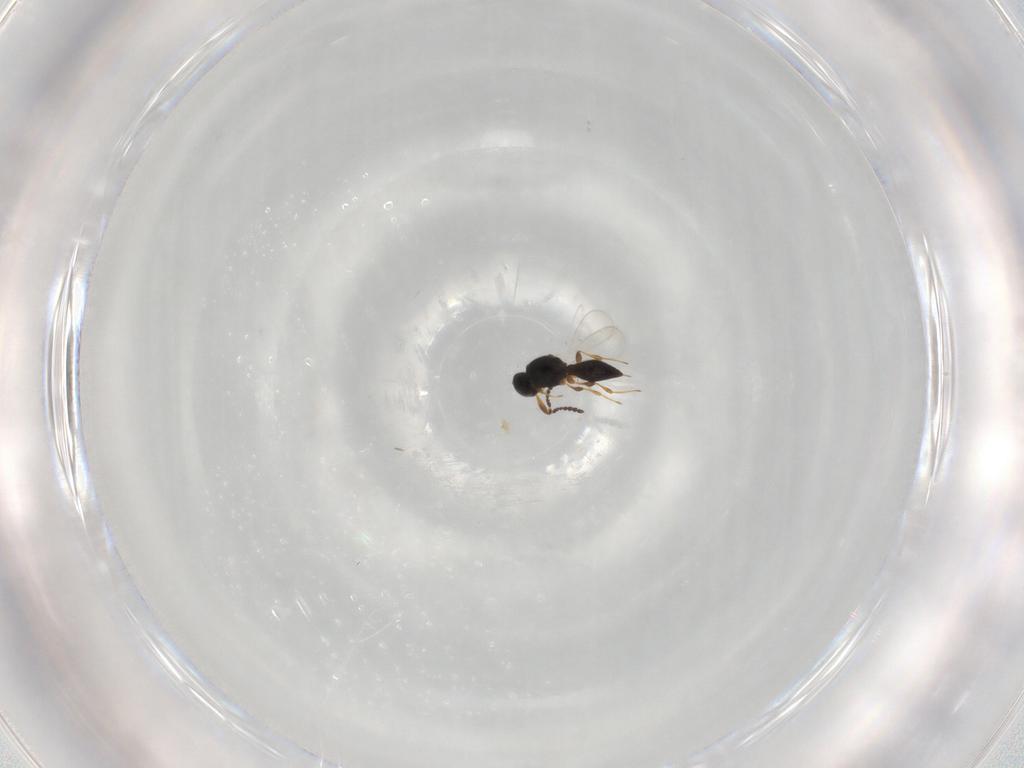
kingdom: Animalia
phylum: Arthropoda
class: Insecta
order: Hymenoptera
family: Platygastridae
